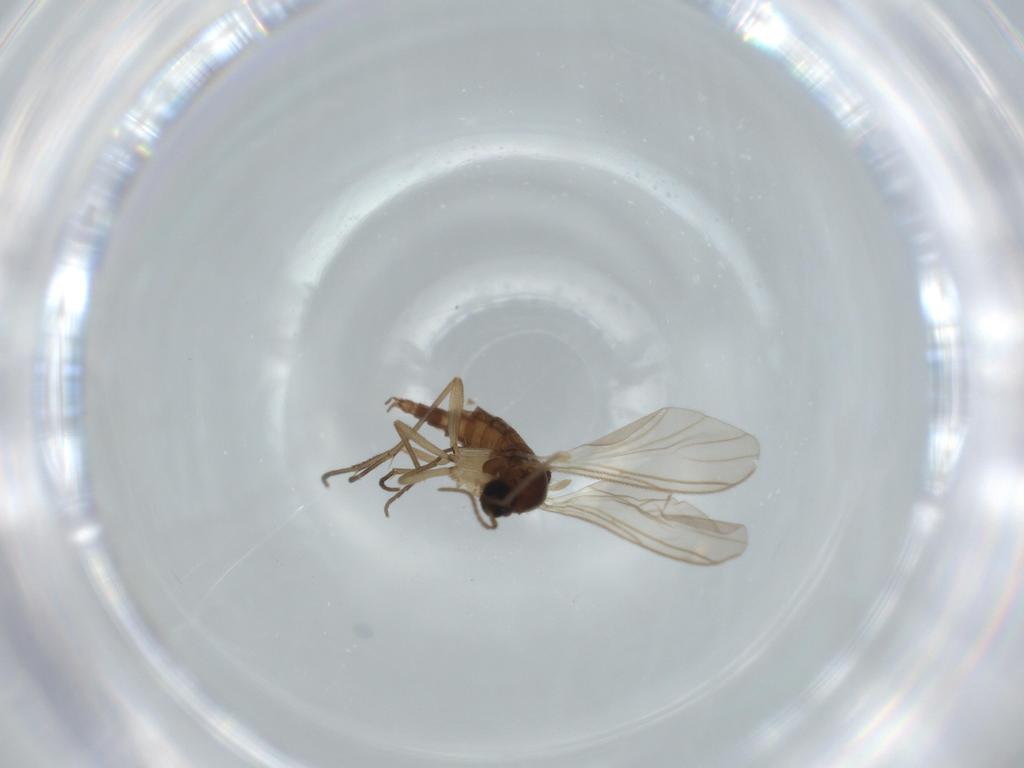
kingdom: Animalia
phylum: Arthropoda
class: Insecta
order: Diptera
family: Sciaridae
